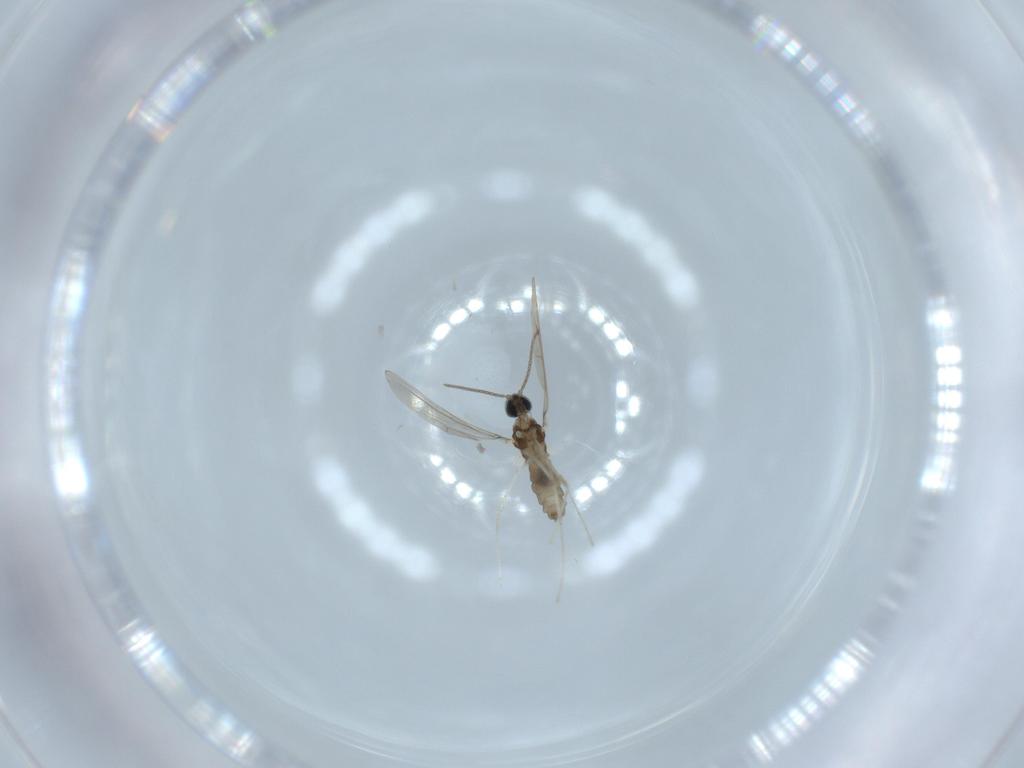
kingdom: Animalia
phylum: Arthropoda
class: Insecta
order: Diptera
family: Cecidomyiidae
